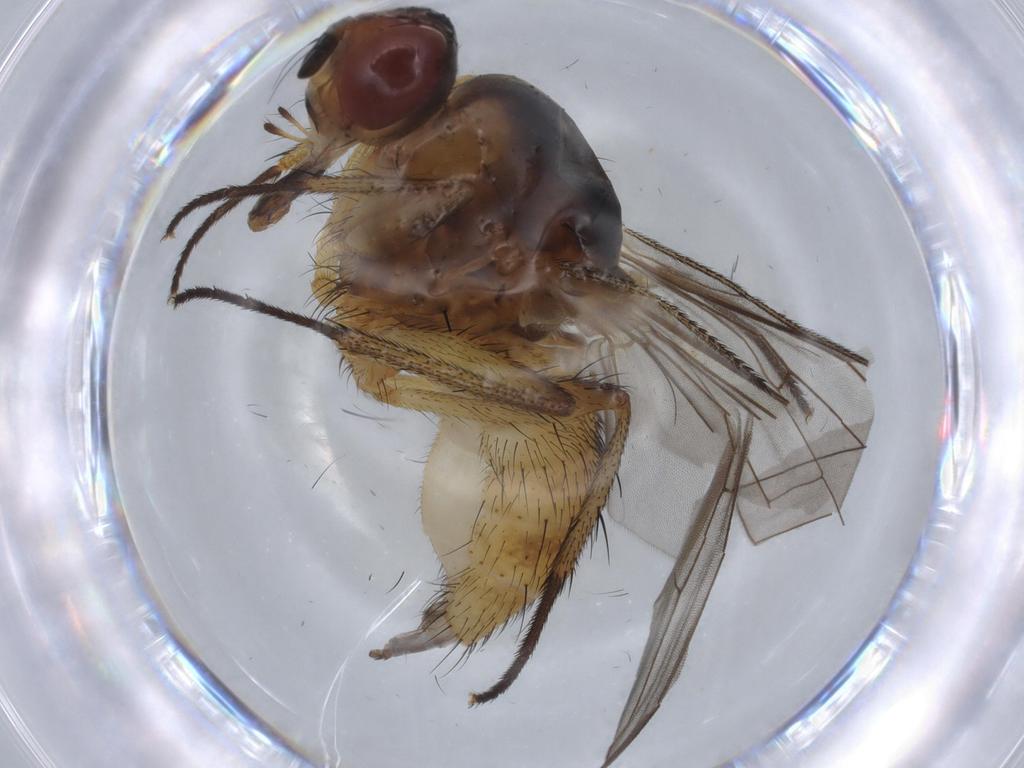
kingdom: Animalia
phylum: Arthropoda
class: Insecta
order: Diptera
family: Anthomyiidae
